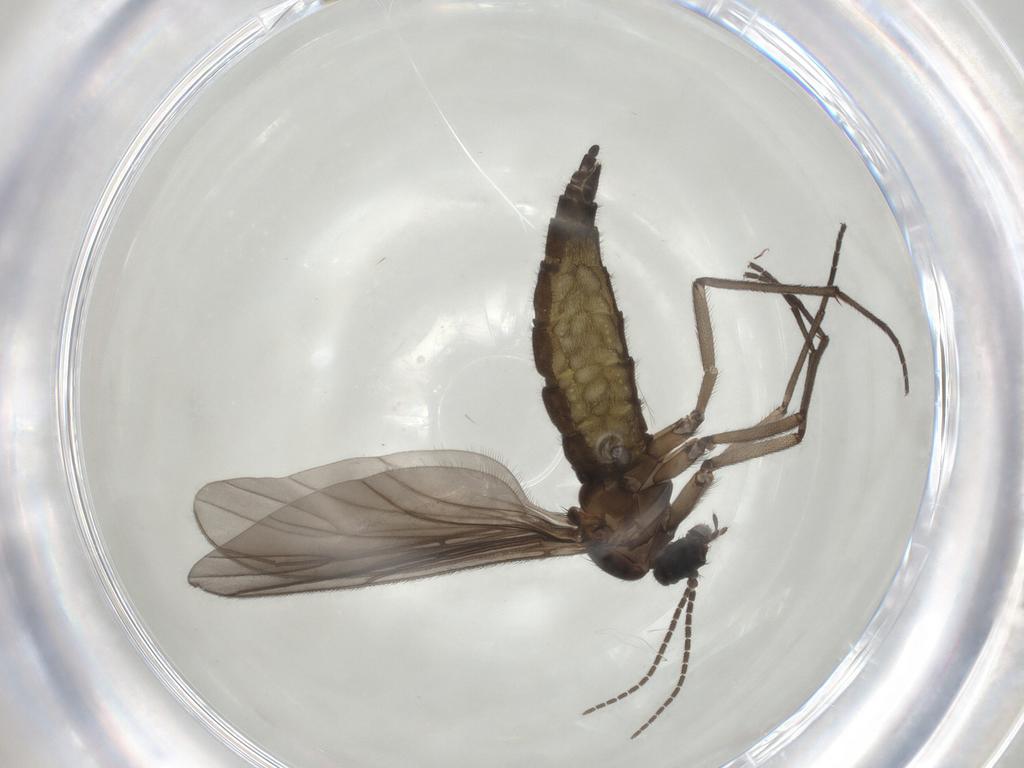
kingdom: Animalia
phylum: Arthropoda
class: Insecta
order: Diptera
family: Sciaridae
